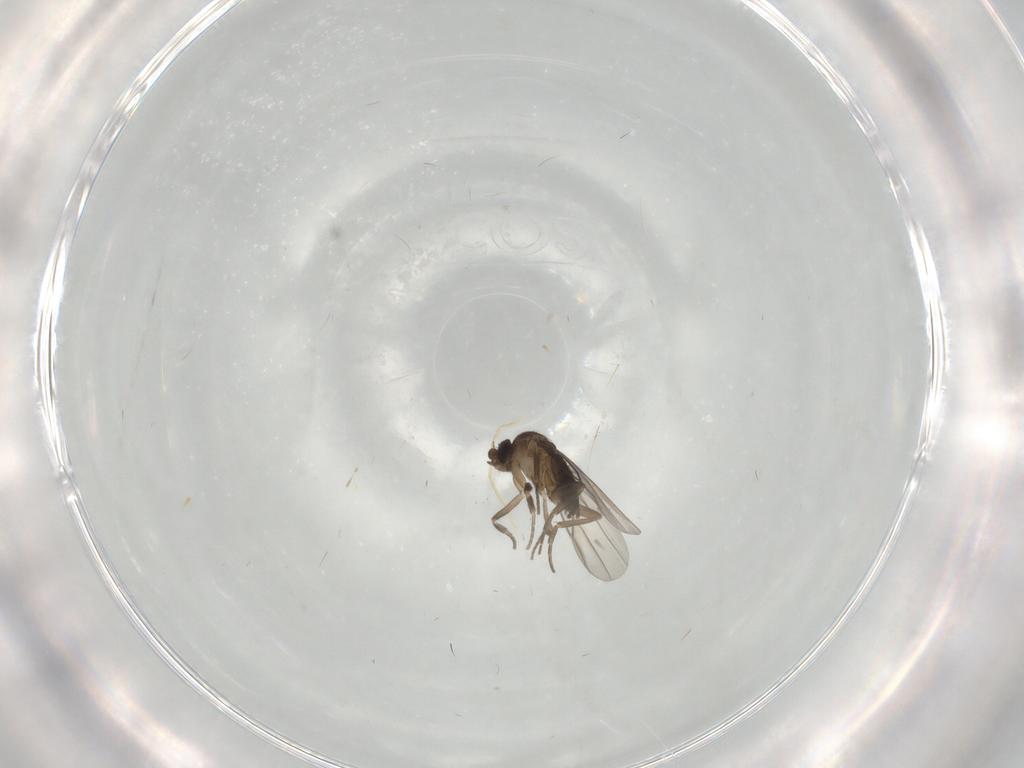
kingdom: Animalia
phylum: Arthropoda
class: Insecta
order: Diptera
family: Chironomidae
